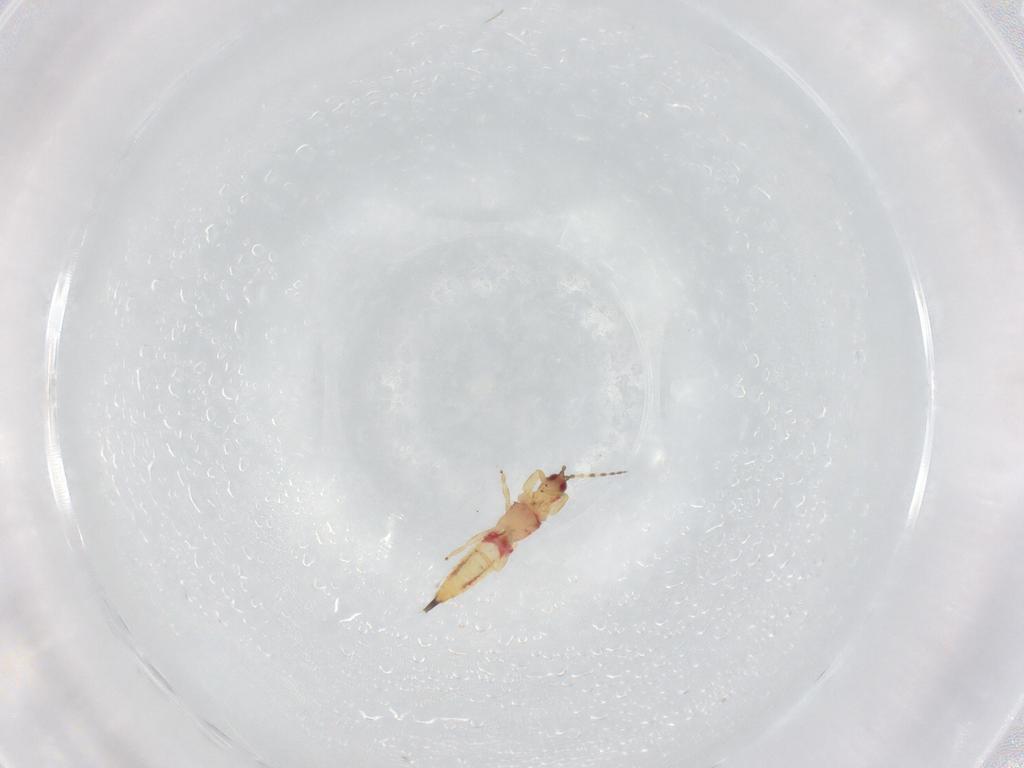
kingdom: Animalia
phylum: Arthropoda
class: Insecta
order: Thysanoptera
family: Phlaeothripidae
